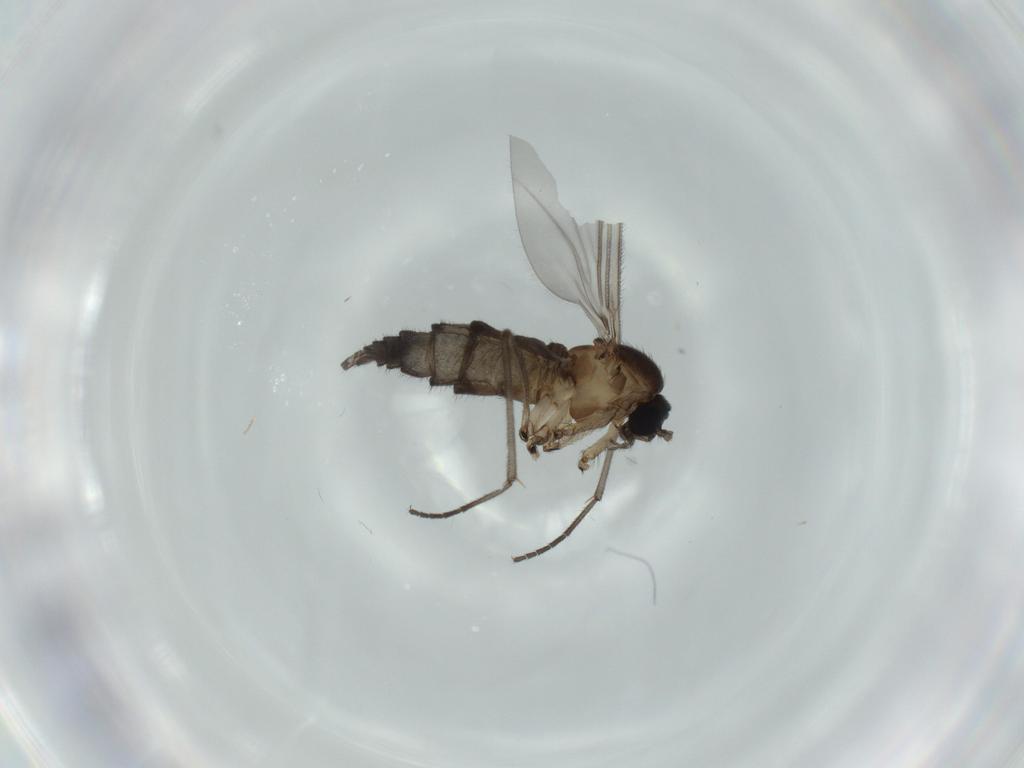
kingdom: Animalia
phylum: Arthropoda
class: Insecta
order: Diptera
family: Sciaridae
